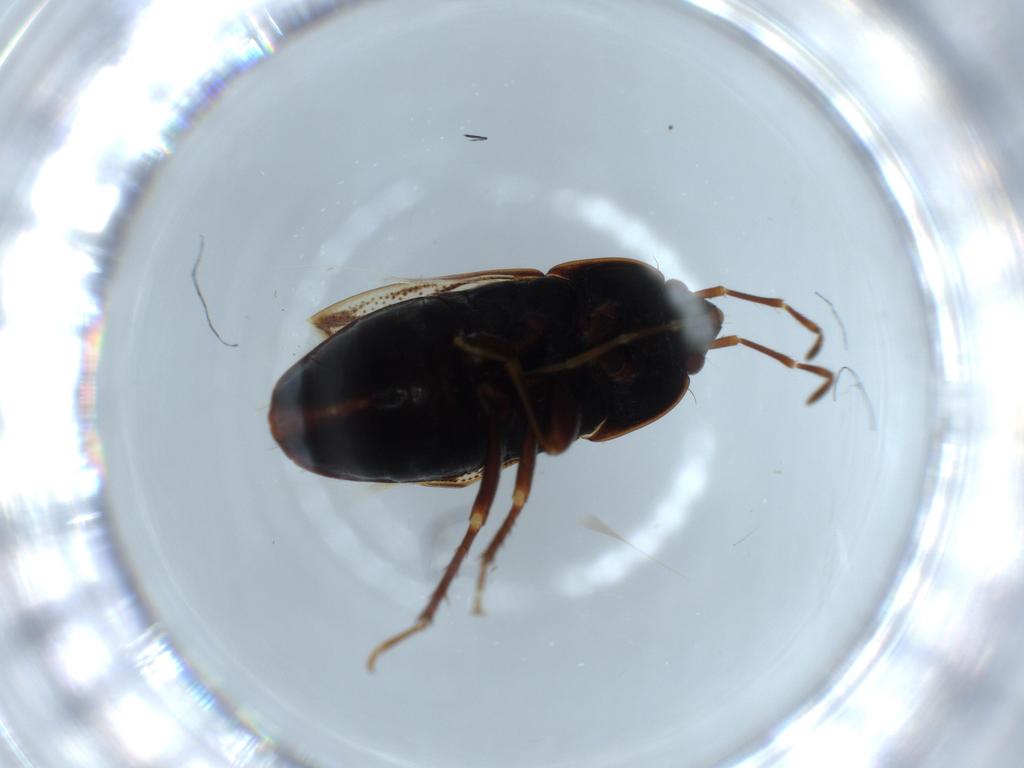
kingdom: Animalia
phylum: Arthropoda
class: Insecta
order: Hemiptera
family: Rhyparochromidae
